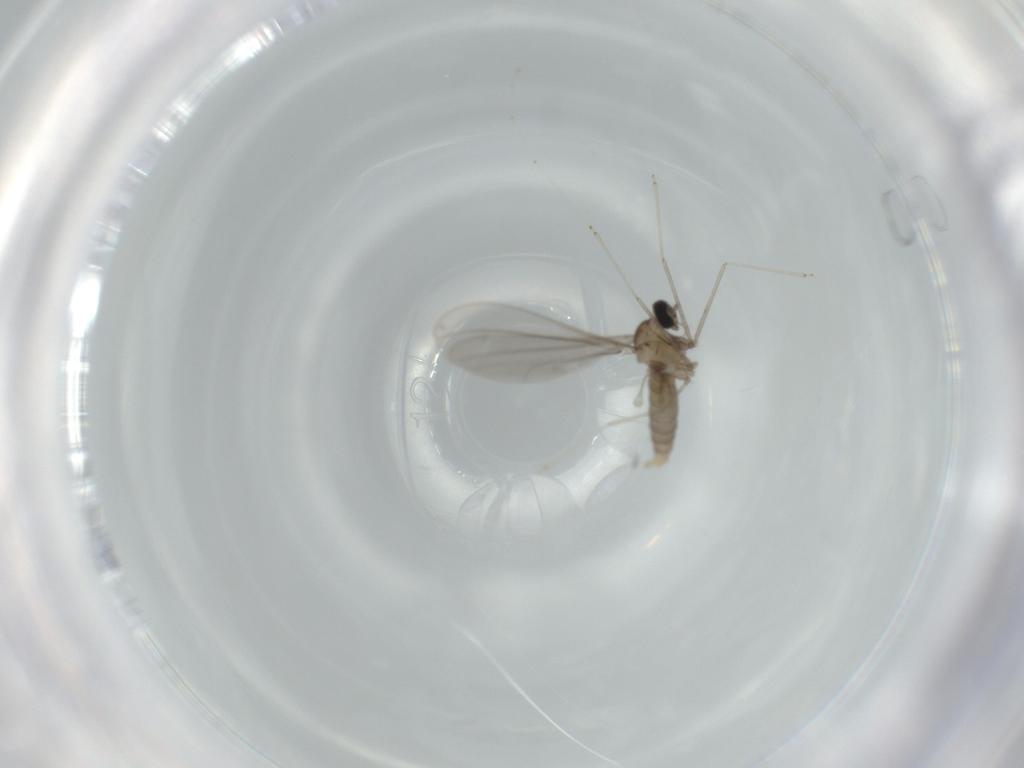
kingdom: Animalia
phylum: Arthropoda
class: Insecta
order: Diptera
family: Cecidomyiidae
